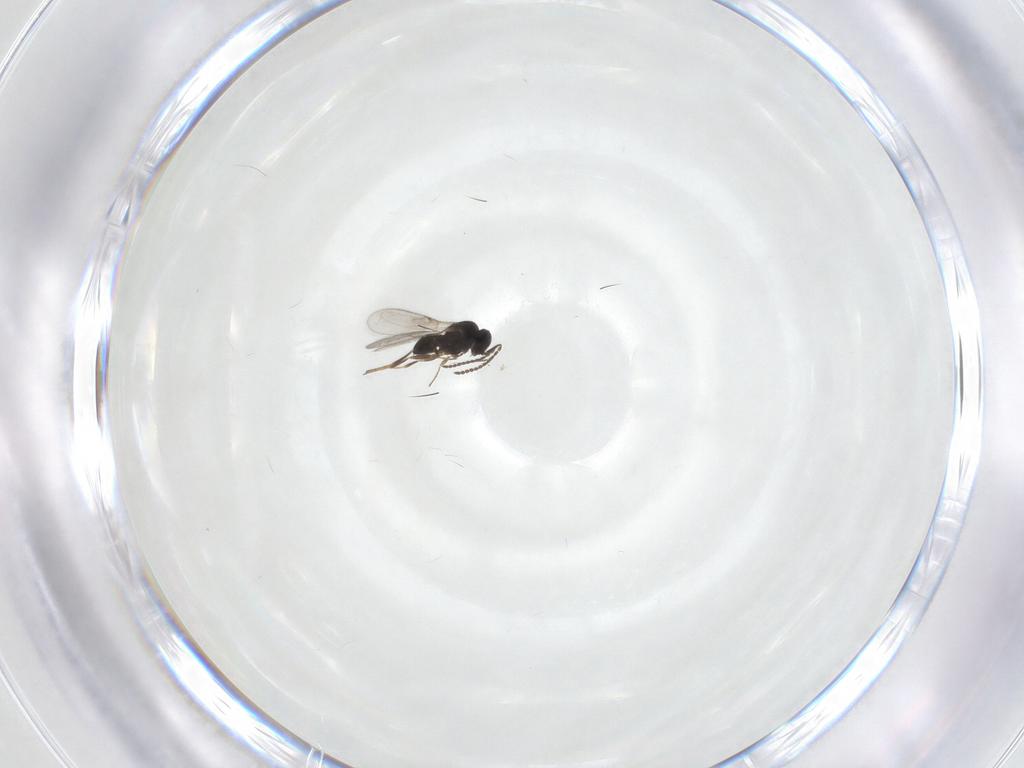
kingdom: Animalia
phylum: Arthropoda
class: Insecta
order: Hymenoptera
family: Scelionidae
